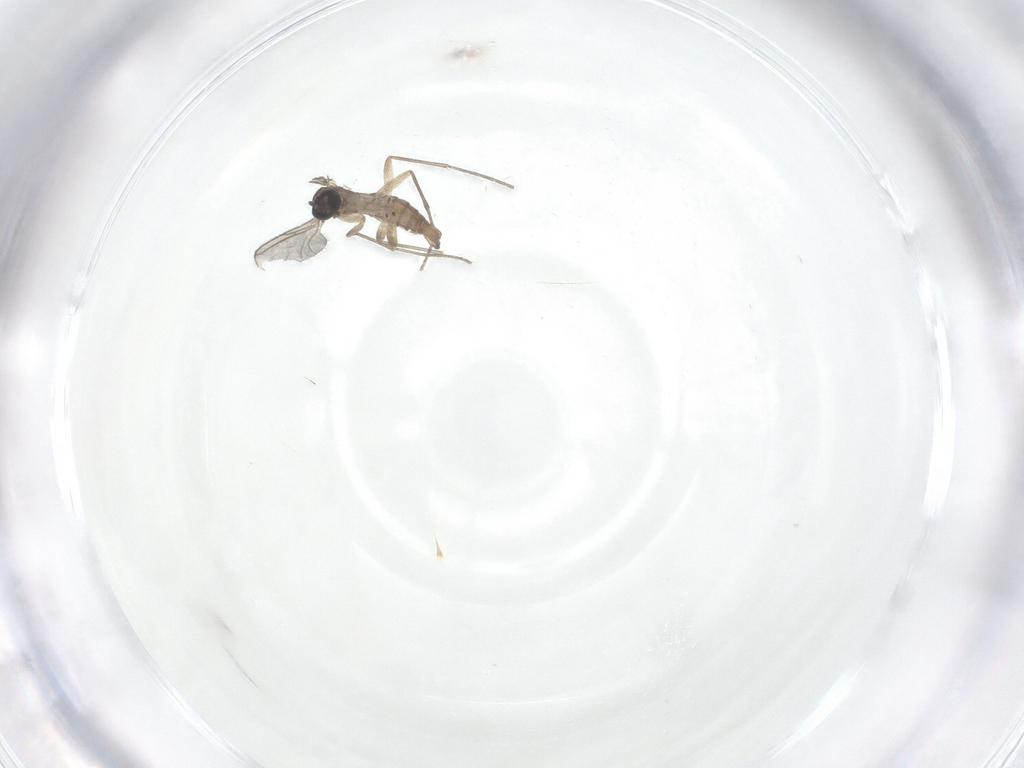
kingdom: Animalia
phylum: Arthropoda
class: Insecta
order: Diptera
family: Sciaridae
